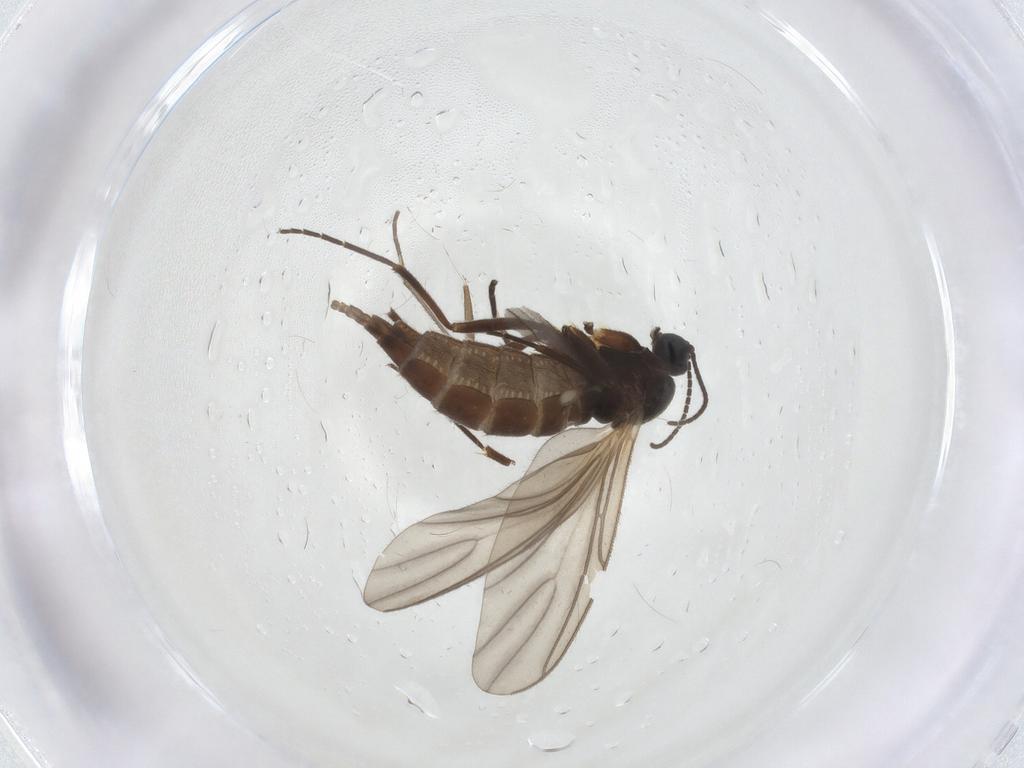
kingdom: Animalia
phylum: Arthropoda
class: Insecta
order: Diptera
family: Sciaridae
